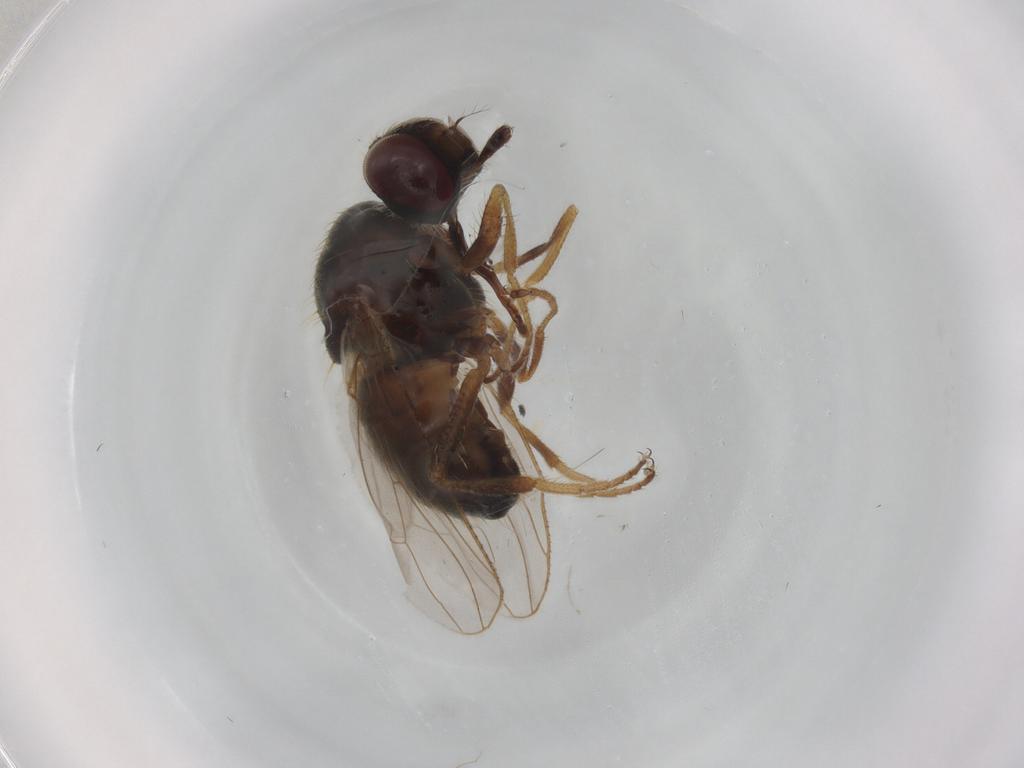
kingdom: Animalia
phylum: Arthropoda
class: Insecta
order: Diptera
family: Muscidae
